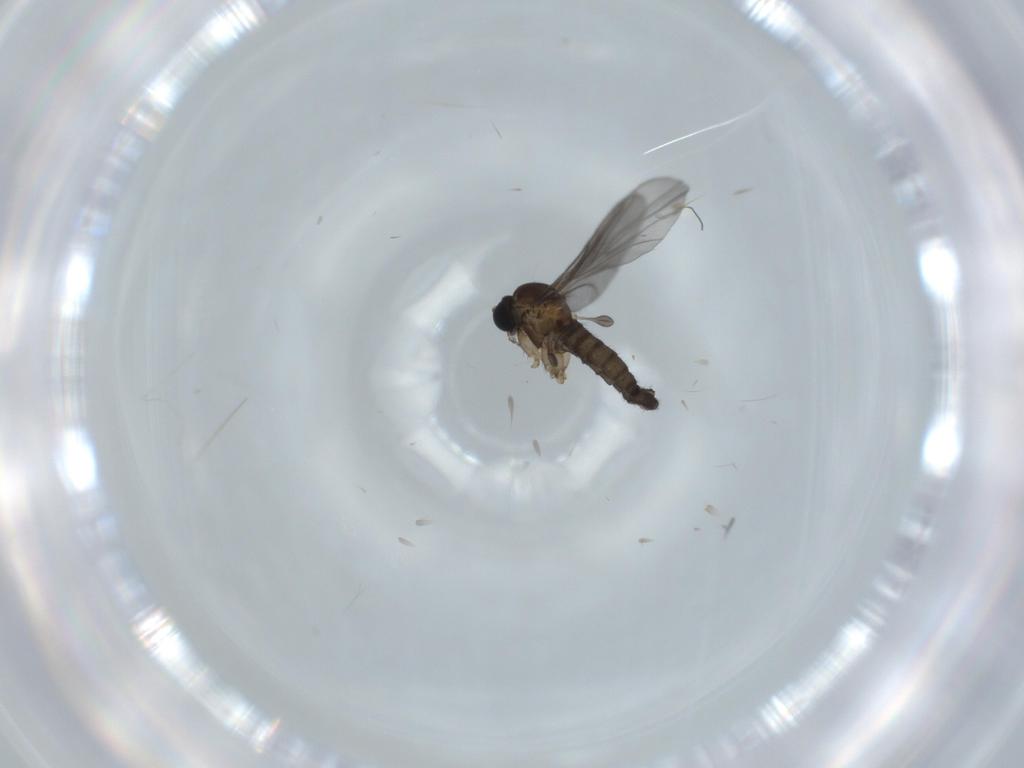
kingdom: Animalia
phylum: Arthropoda
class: Insecta
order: Diptera
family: Sciaridae
